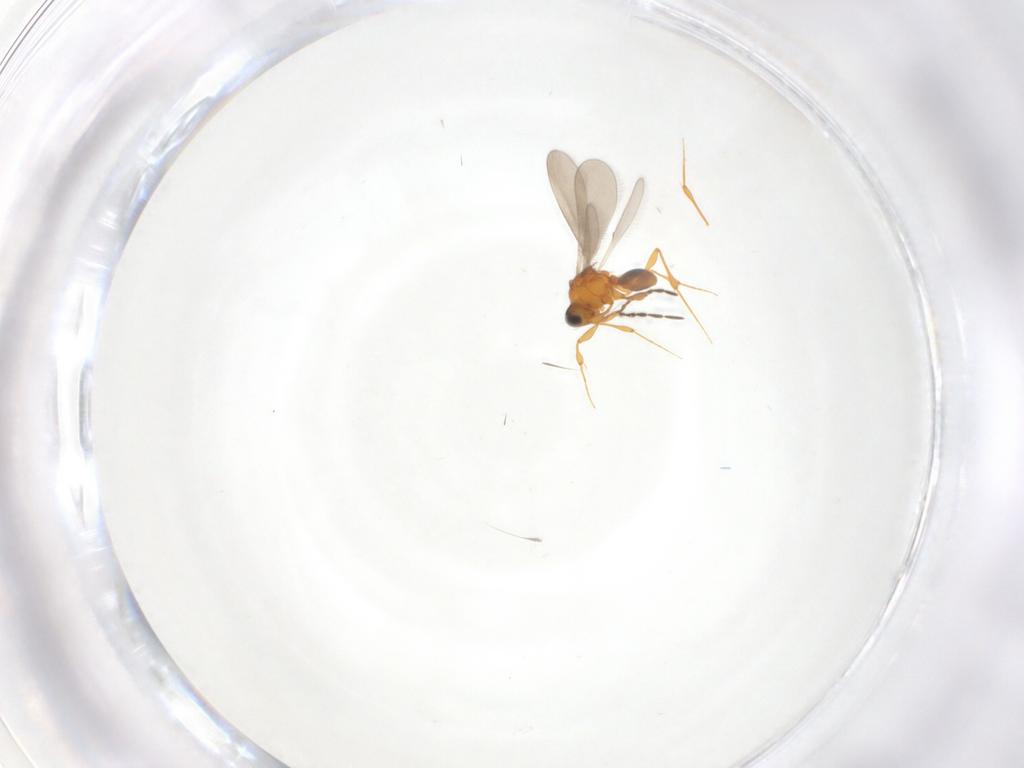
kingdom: Animalia
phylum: Arthropoda
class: Insecta
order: Hymenoptera
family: Platygastridae
